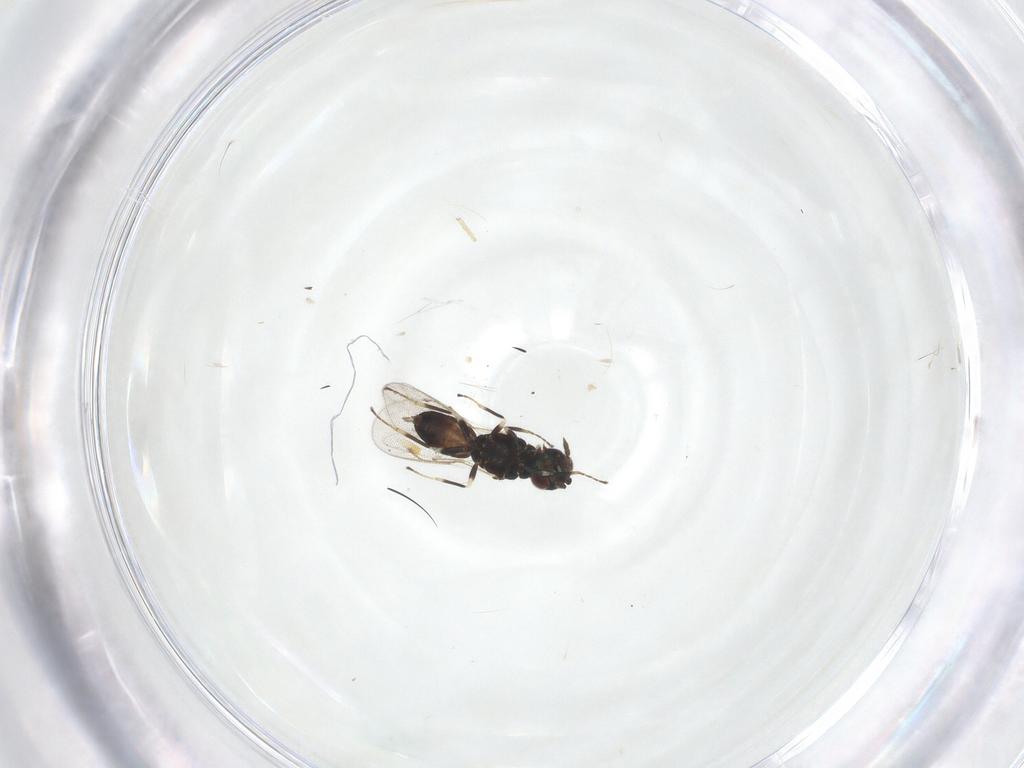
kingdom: Animalia
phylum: Arthropoda
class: Insecta
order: Hymenoptera
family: Eulophidae
